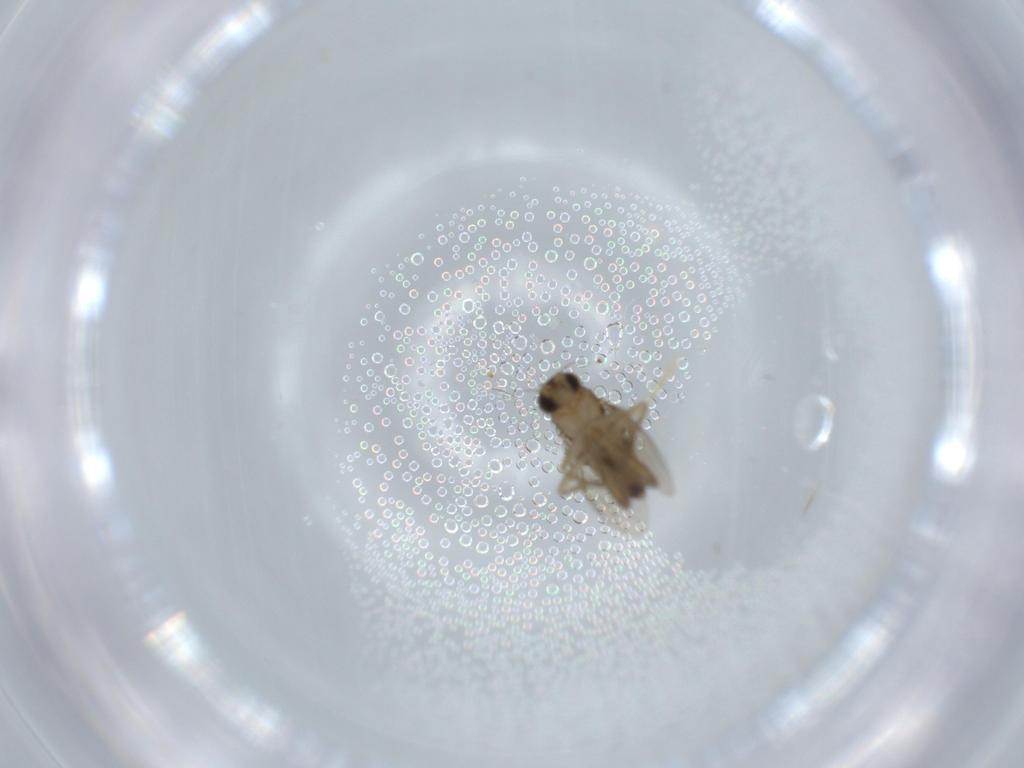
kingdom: Animalia
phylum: Arthropoda
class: Insecta
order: Diptera
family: Phoridae
